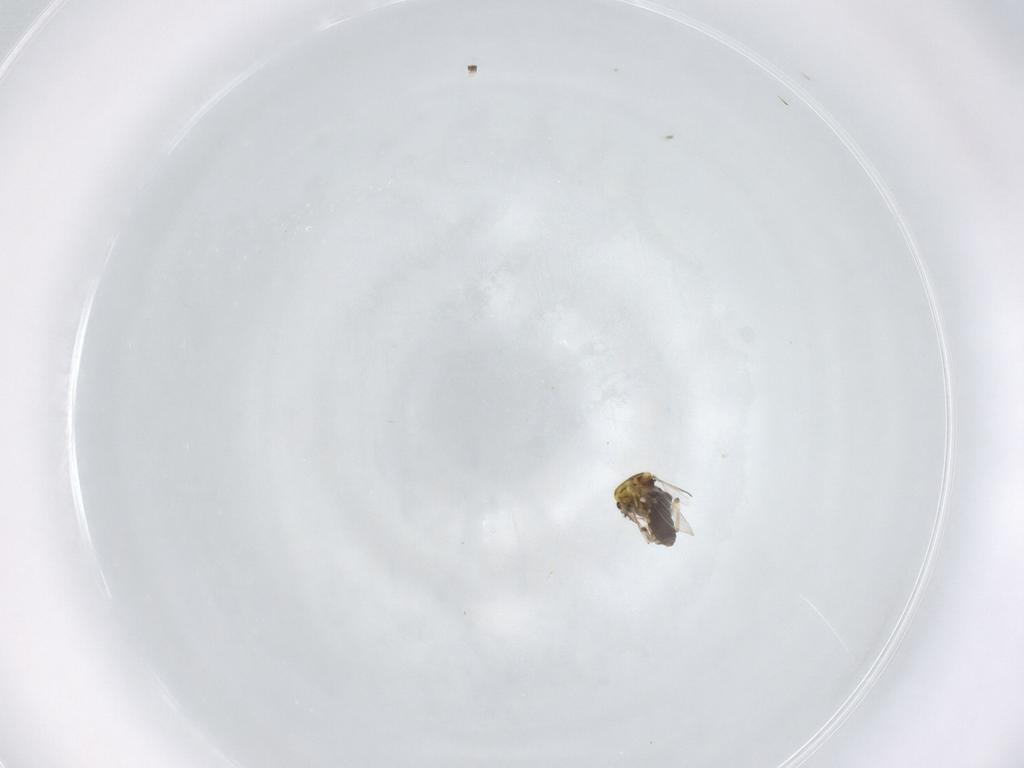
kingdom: Animalia
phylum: Arthropoda
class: Insecta
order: Diptera
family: Ceratopogonidae
